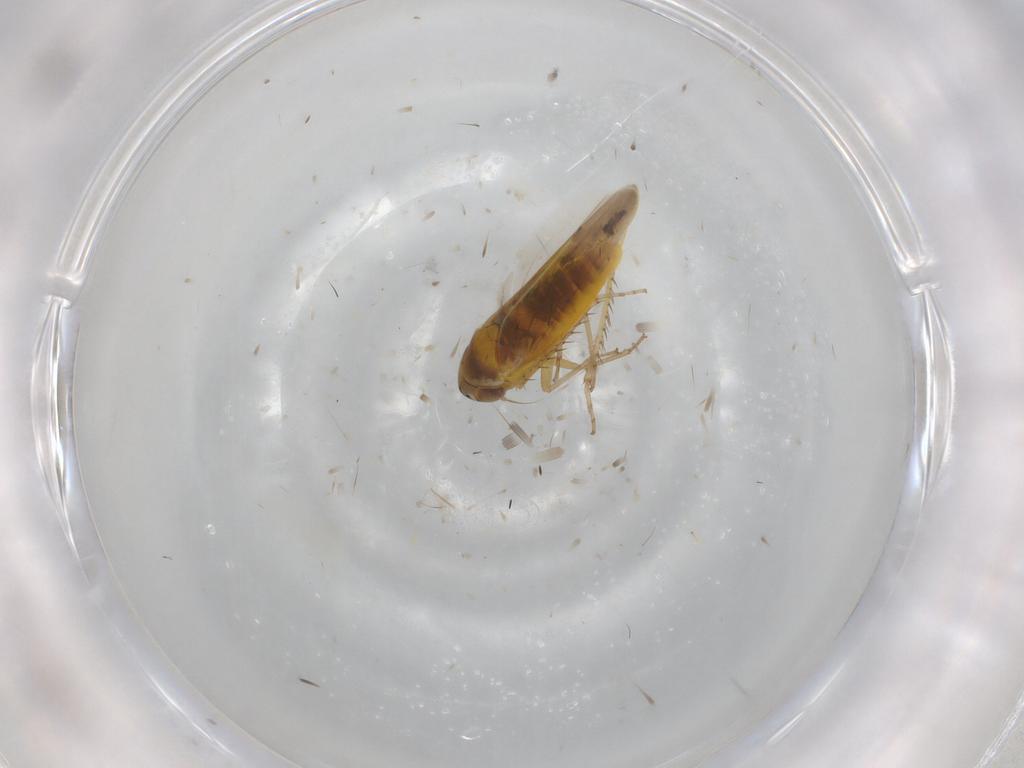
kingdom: Animalia
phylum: Arthropoda
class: Insecta
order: Hemiptera
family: Cicadellidae
